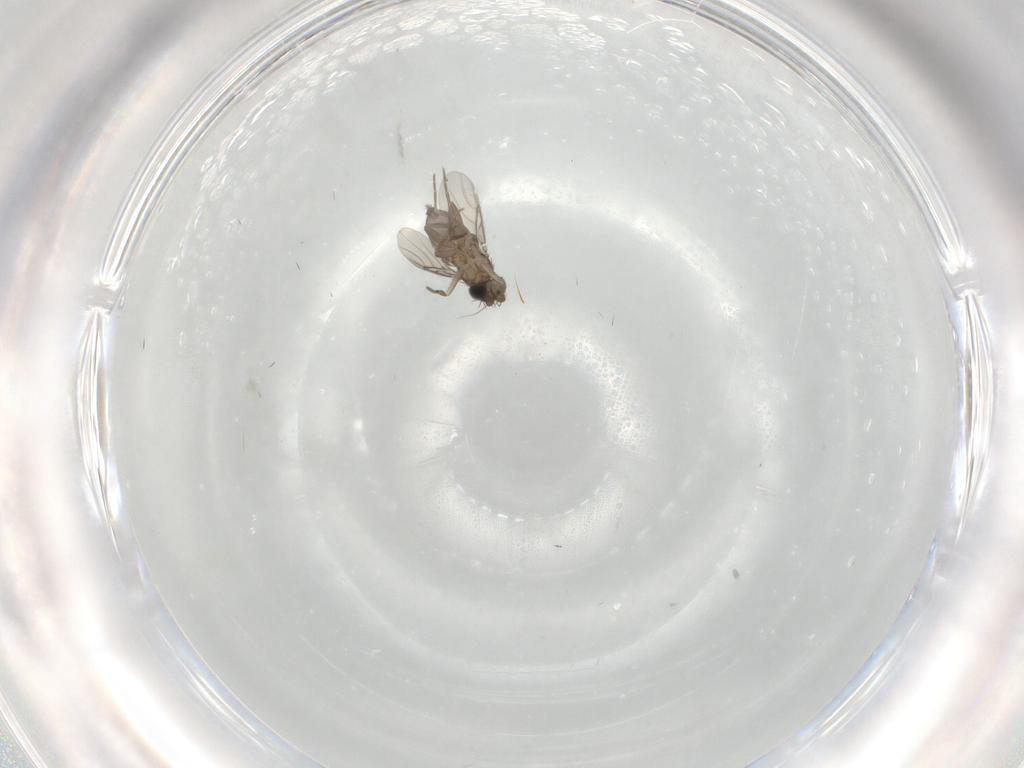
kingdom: Animalia
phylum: Arthropoda
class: Insecta
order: Diptera
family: Phoridae
